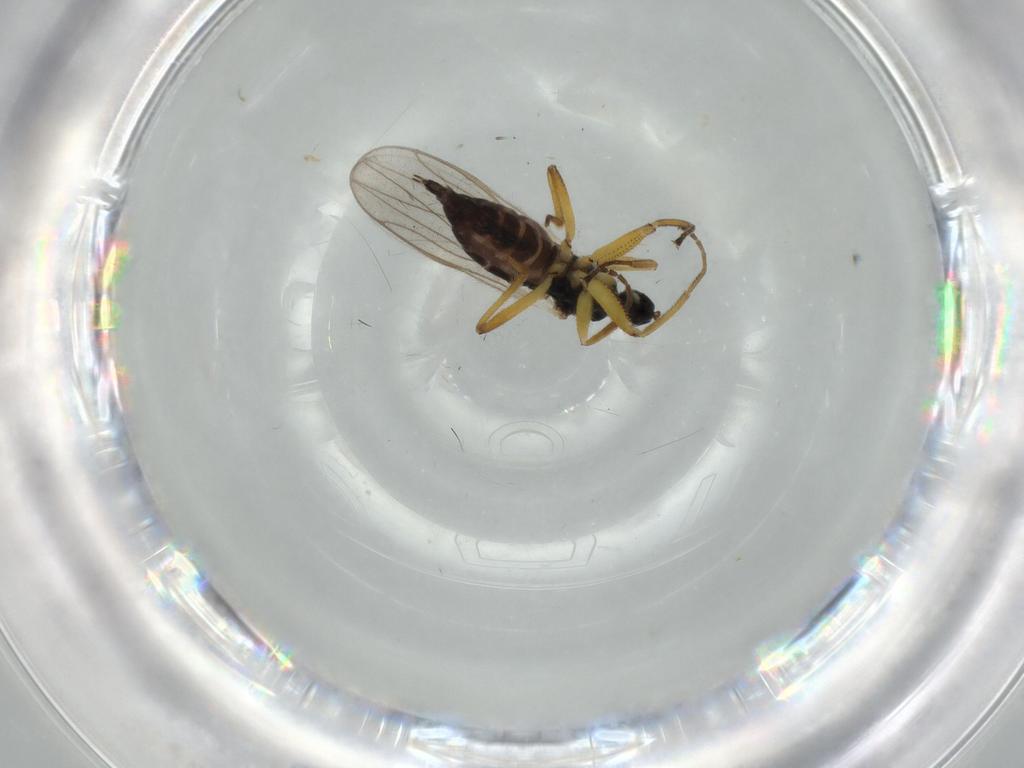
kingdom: Animalia
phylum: Arthropoda
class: Insecta
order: Diptera
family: Hybotidae
